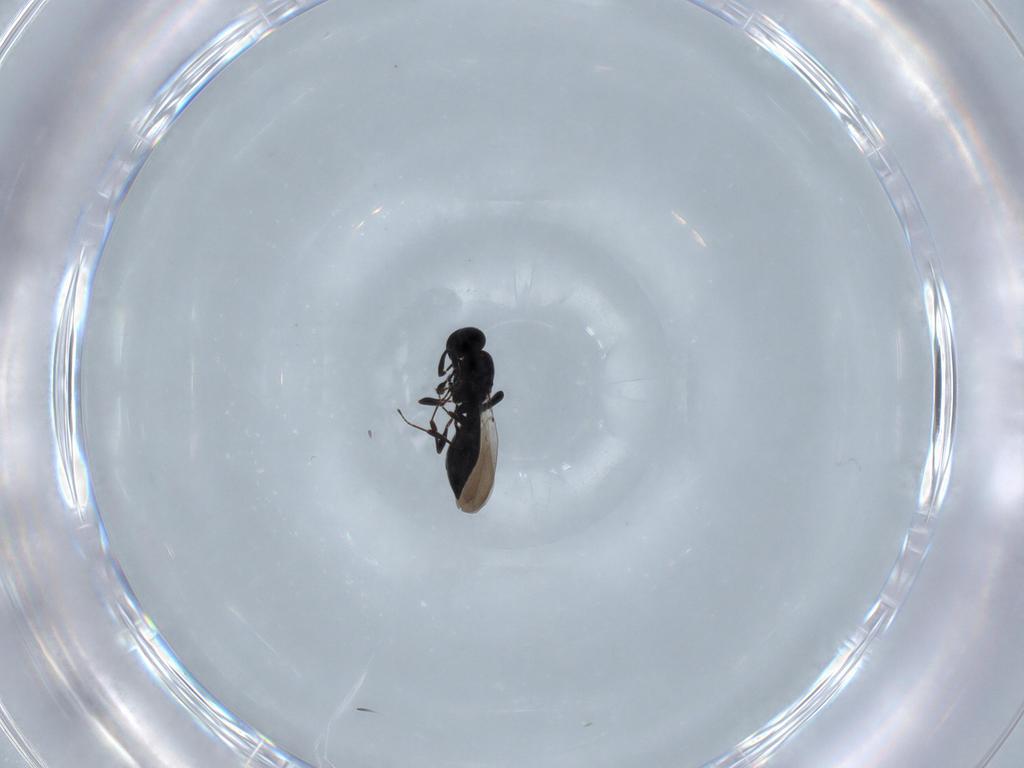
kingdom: Animalia
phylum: Arthropoda
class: Insecta
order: Hymenoptera
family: Platygastridae
